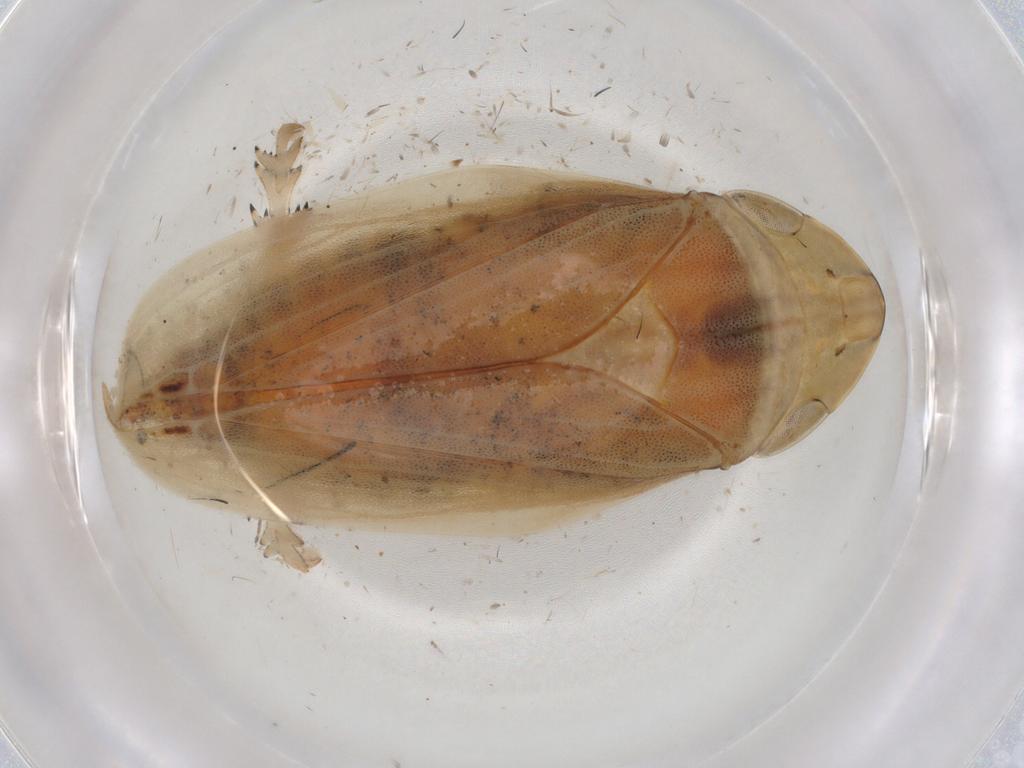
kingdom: Animalia
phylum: Arthropoda
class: Insecta
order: Hemiptera
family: Aphrophoridae
